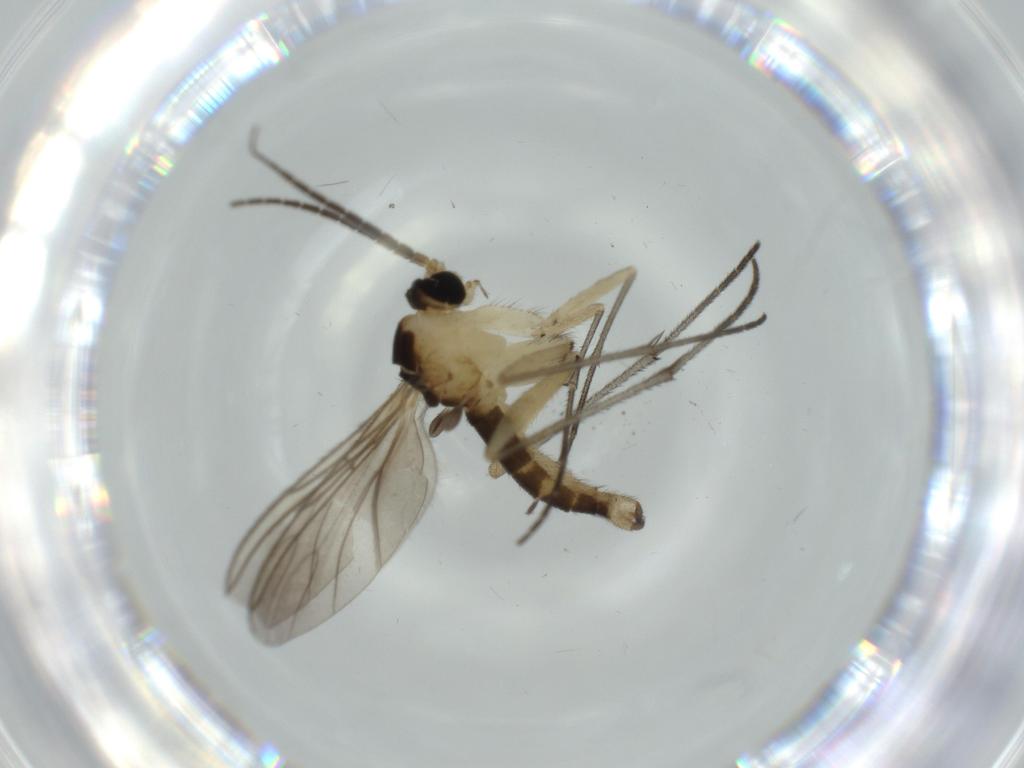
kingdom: Animalia
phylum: Arthropoda
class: Insecta
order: Diptera
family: Sciaridae
